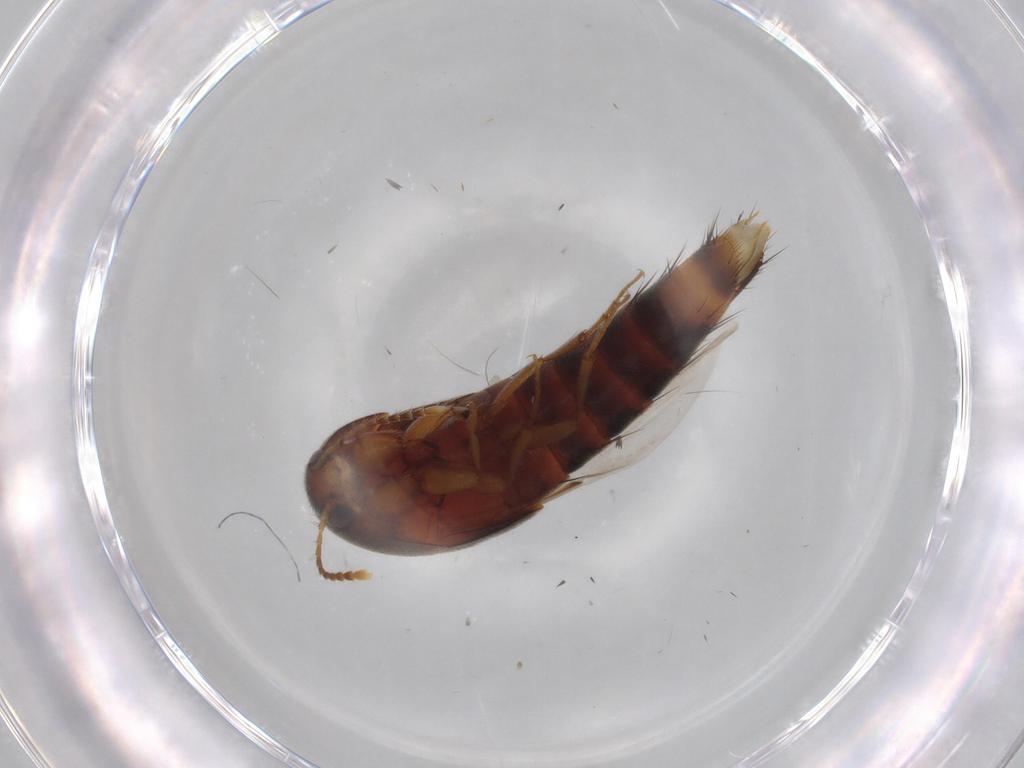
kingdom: Animalia
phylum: Arthropoda
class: Insecta
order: Coleoptera
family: Staphylinidae
